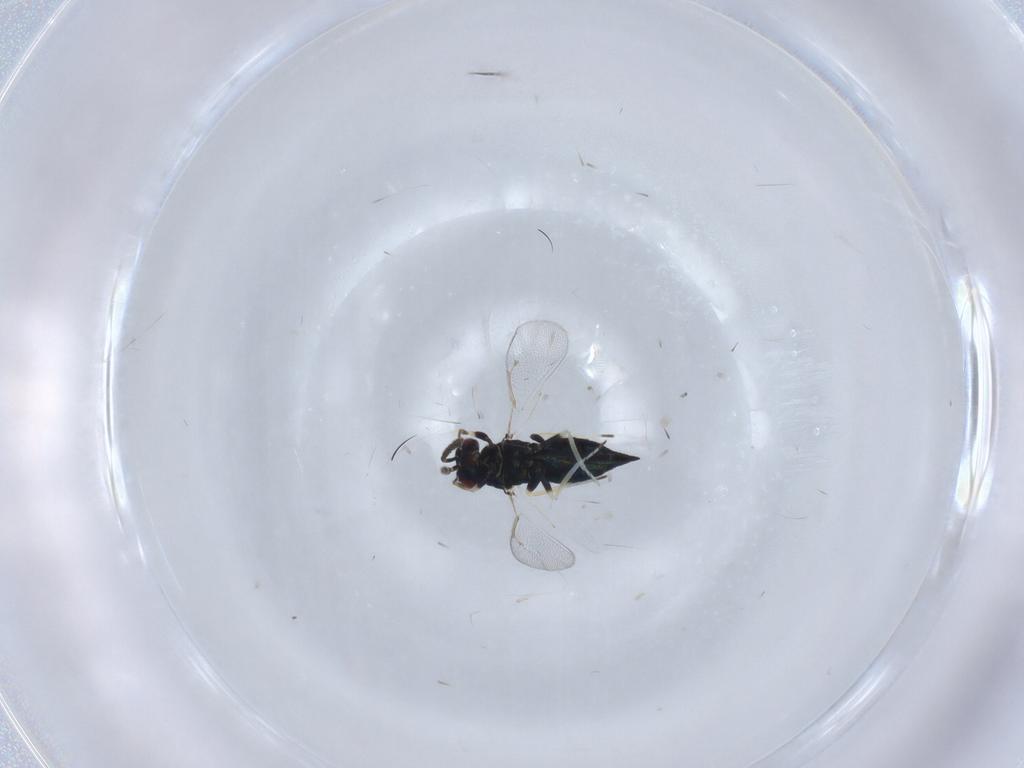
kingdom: Animalia
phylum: Arthropoda
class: Insecta
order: Hymenoptera
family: Eulophidae
